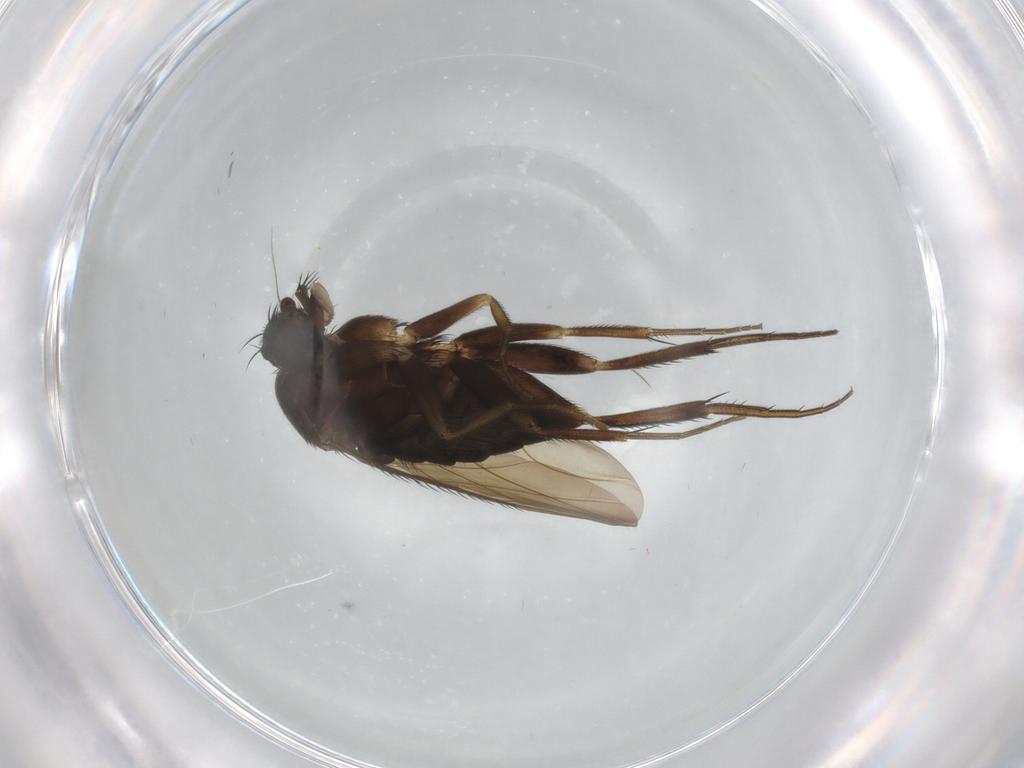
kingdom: Animalia
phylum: Arthropoda
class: Insecta
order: Diptera
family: Phoridae
